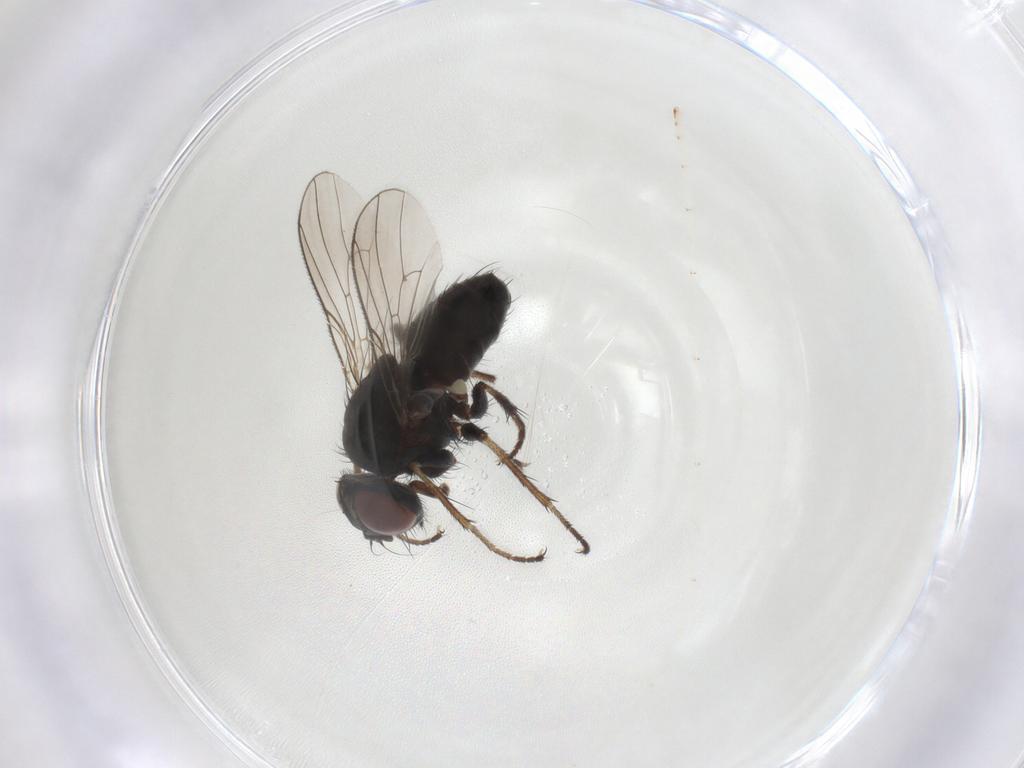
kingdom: Animalia
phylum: Arthropoda
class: Insecta
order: Diptera
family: Muscidae
